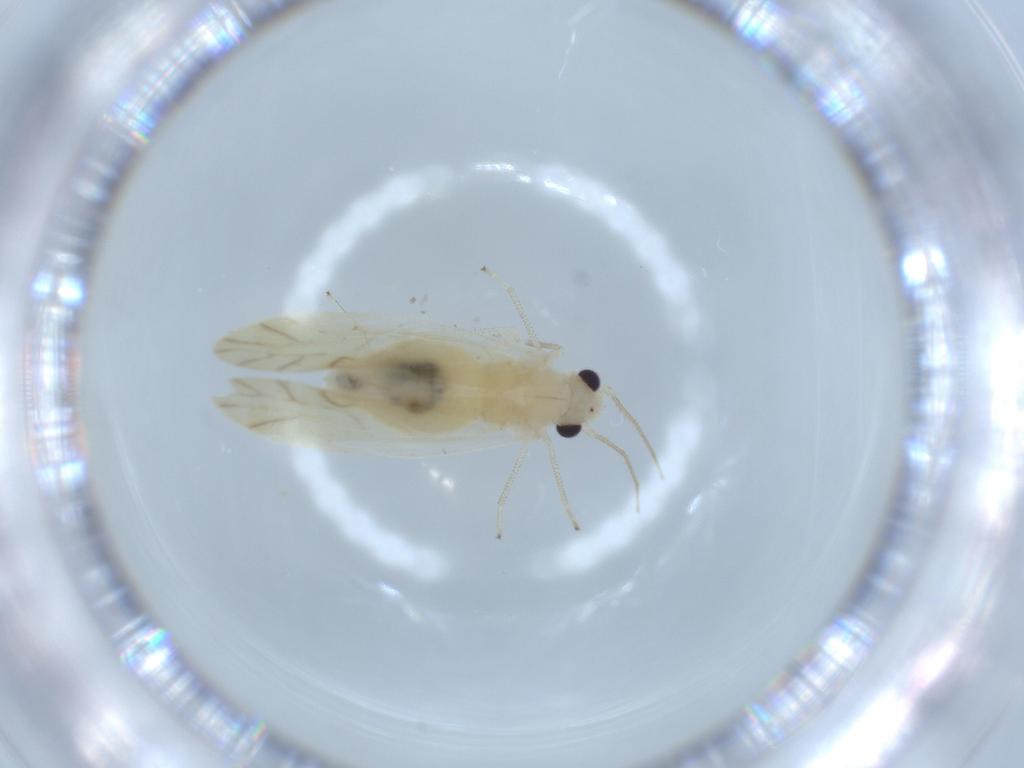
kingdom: Animalia
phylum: Arthropoda
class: Insecta
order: Psocodea
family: Caeciliusidae
